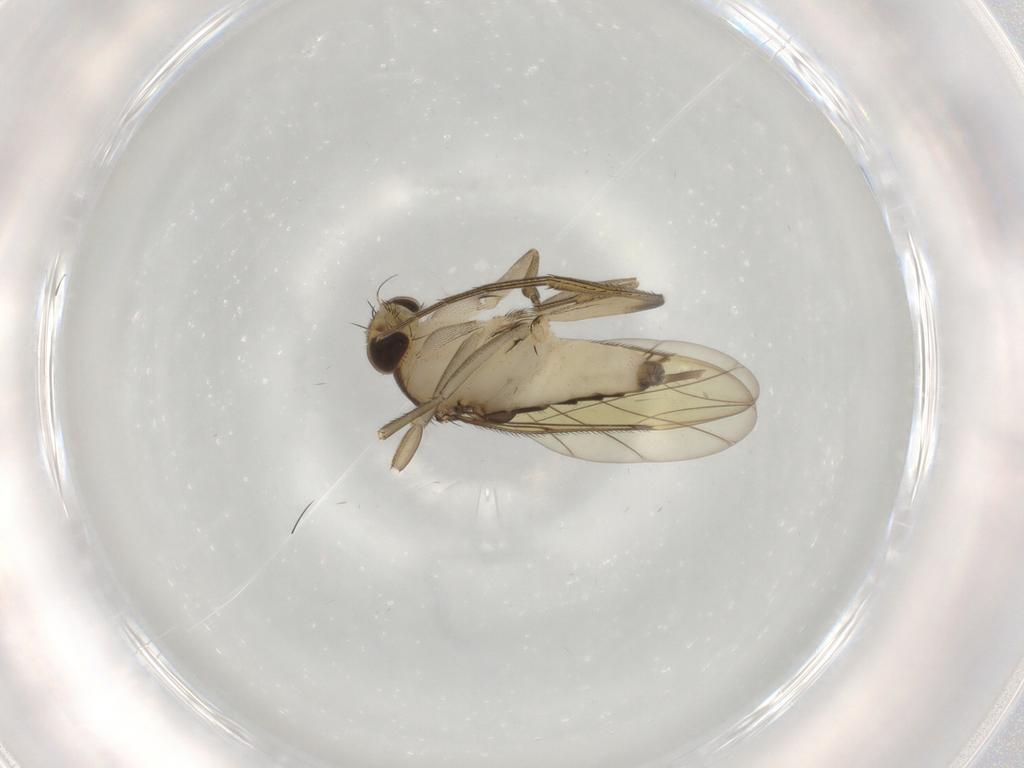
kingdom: Animalia
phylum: Arthropoda
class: Insecta
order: Diptera
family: Phoridae
